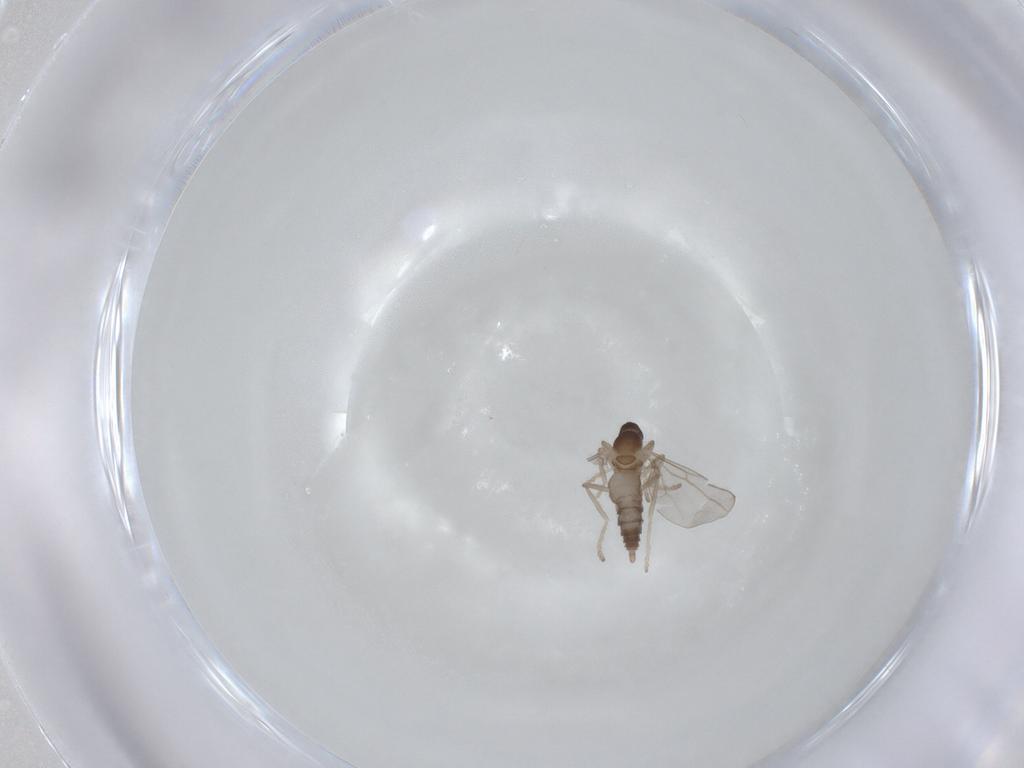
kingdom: Animalia
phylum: Arthropoda
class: Insecta
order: Diptera
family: Cecidomyiidae
